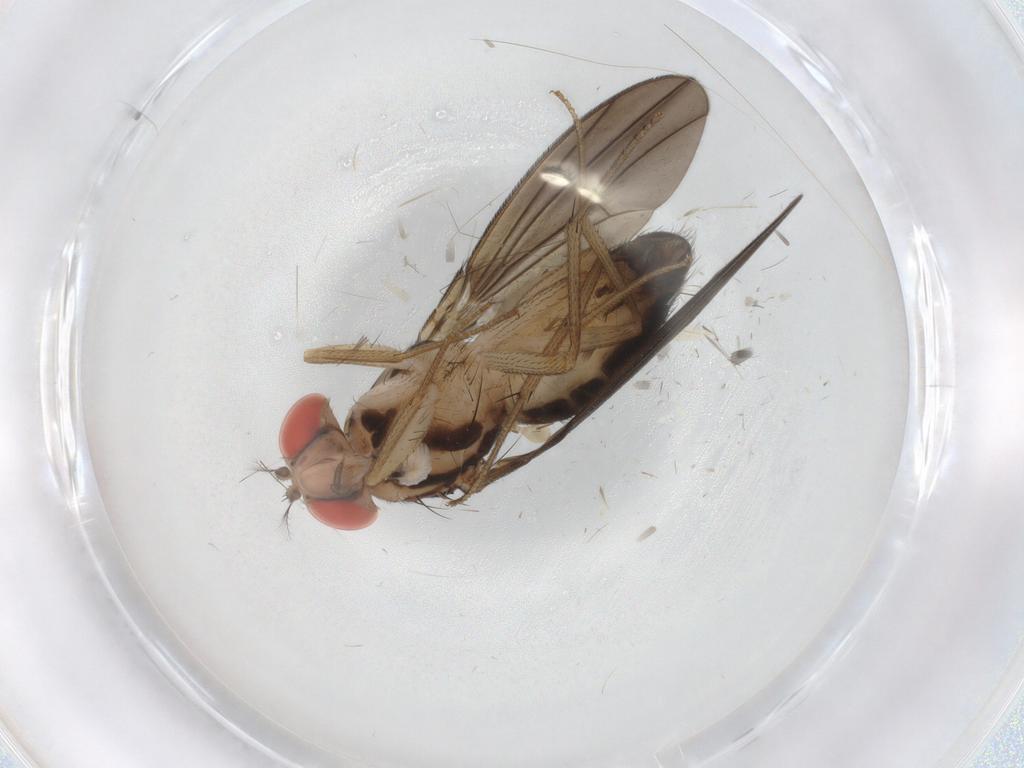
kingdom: Animalia
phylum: Arthropoda
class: Insecta
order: Diptera
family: Drosophilidae
